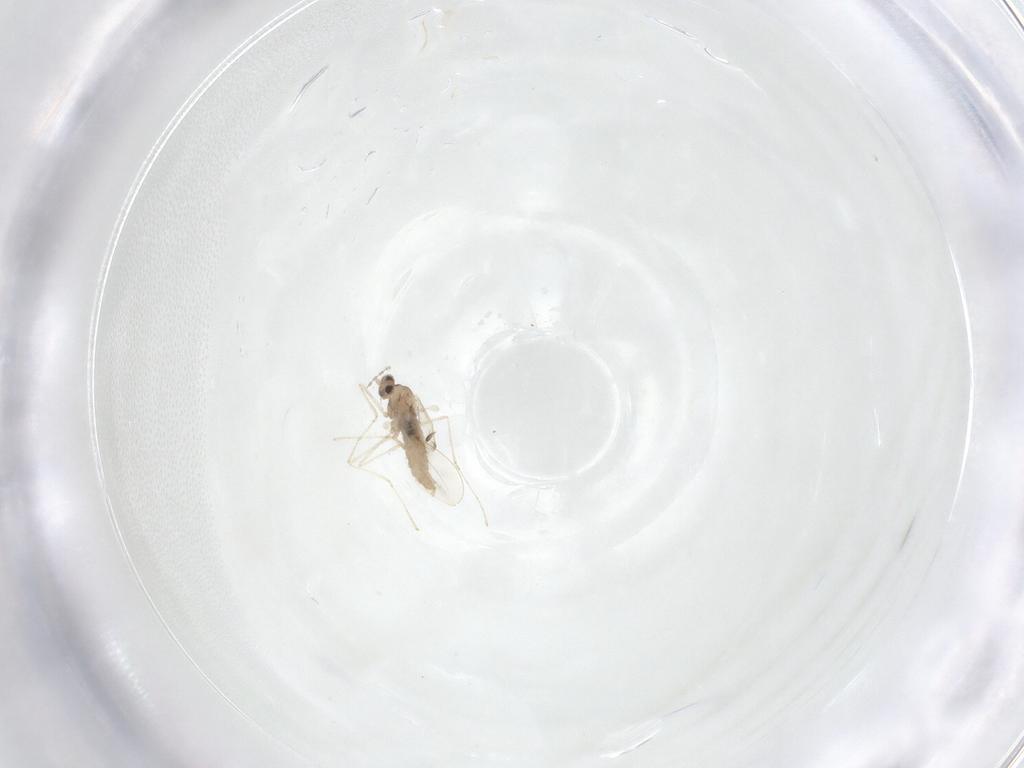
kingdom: Animalia
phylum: Arthropoda
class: Insecta
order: Diptera
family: Cecidomyiidae
